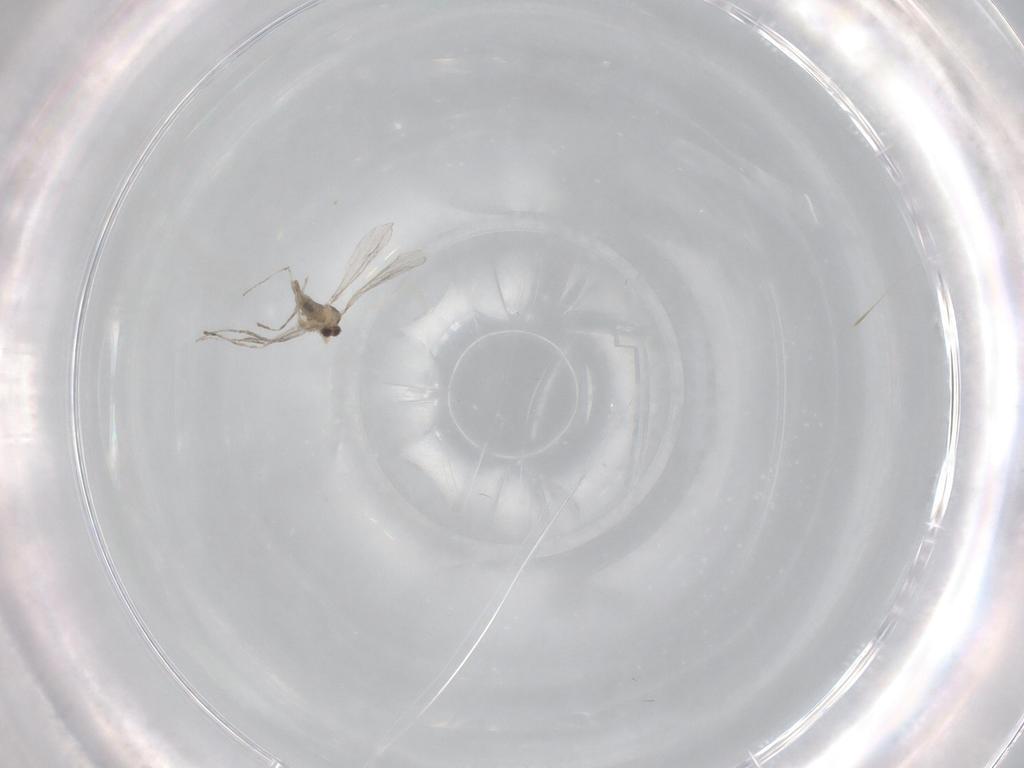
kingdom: Animalia
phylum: Arthropoda
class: Insecta
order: Diptera
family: Cecidomyiidae
